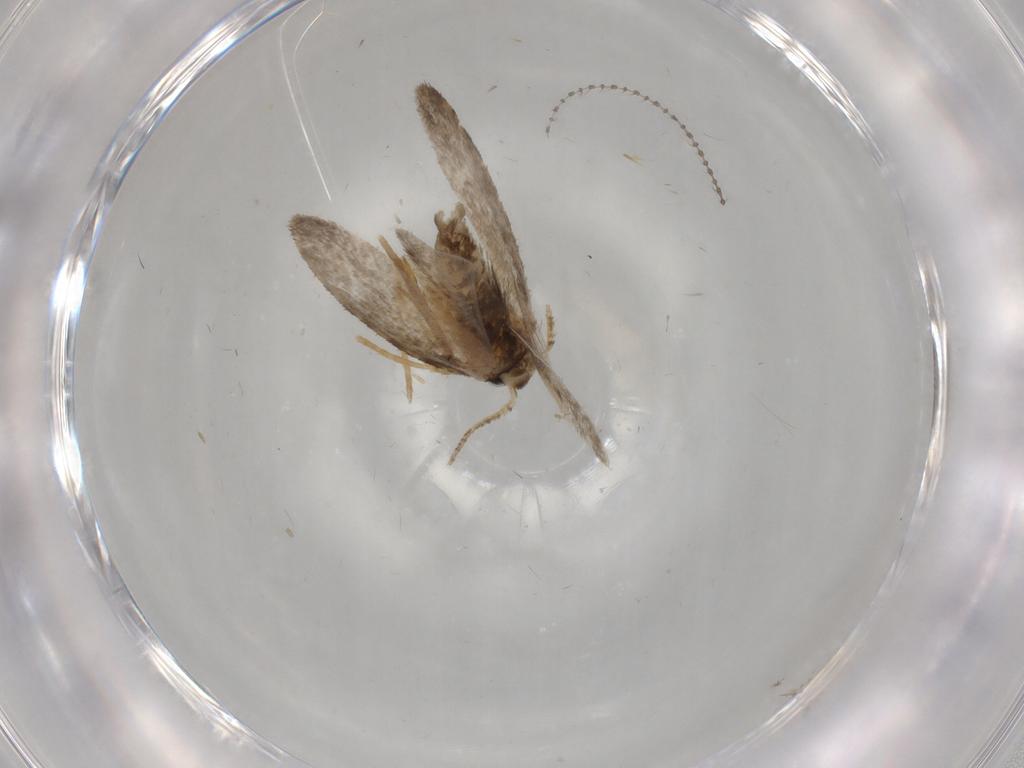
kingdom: Animalia
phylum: Arthropoda
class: Insecta
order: Lepidoptera
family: Psychidae
